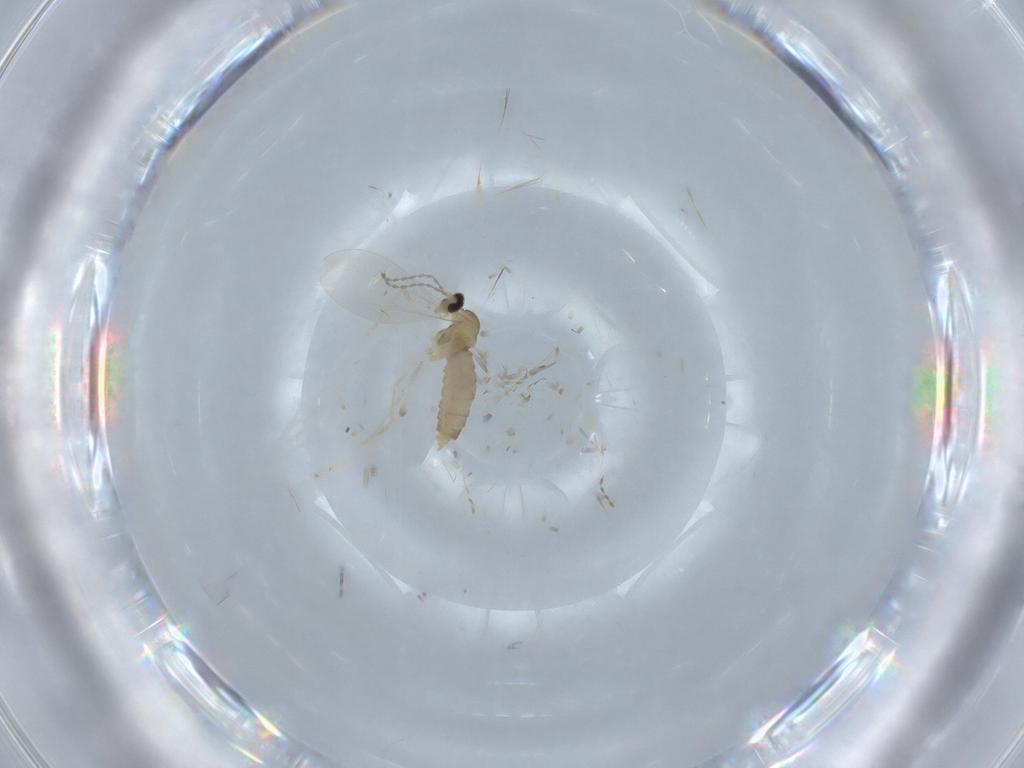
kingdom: Animalia
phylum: Arthropoda
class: Insecta
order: Diptera
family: Cecidomyiidae
